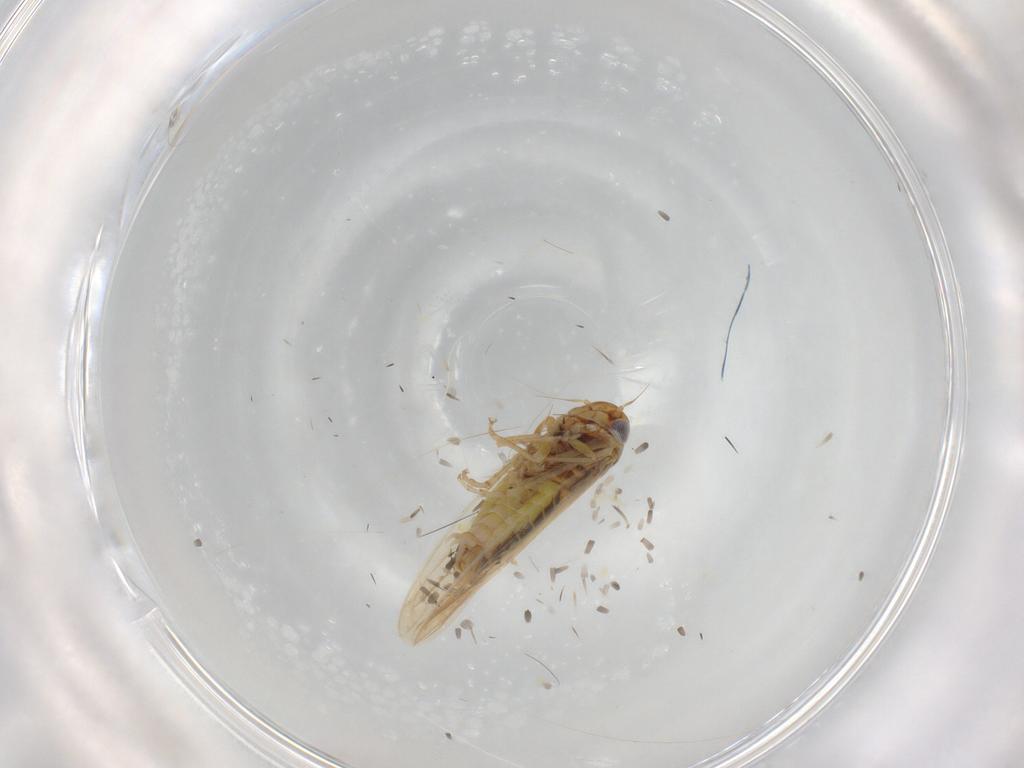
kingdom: Animalia
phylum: Arthropoda
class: Insecta
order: Hemiptera
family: Cicadellidae
